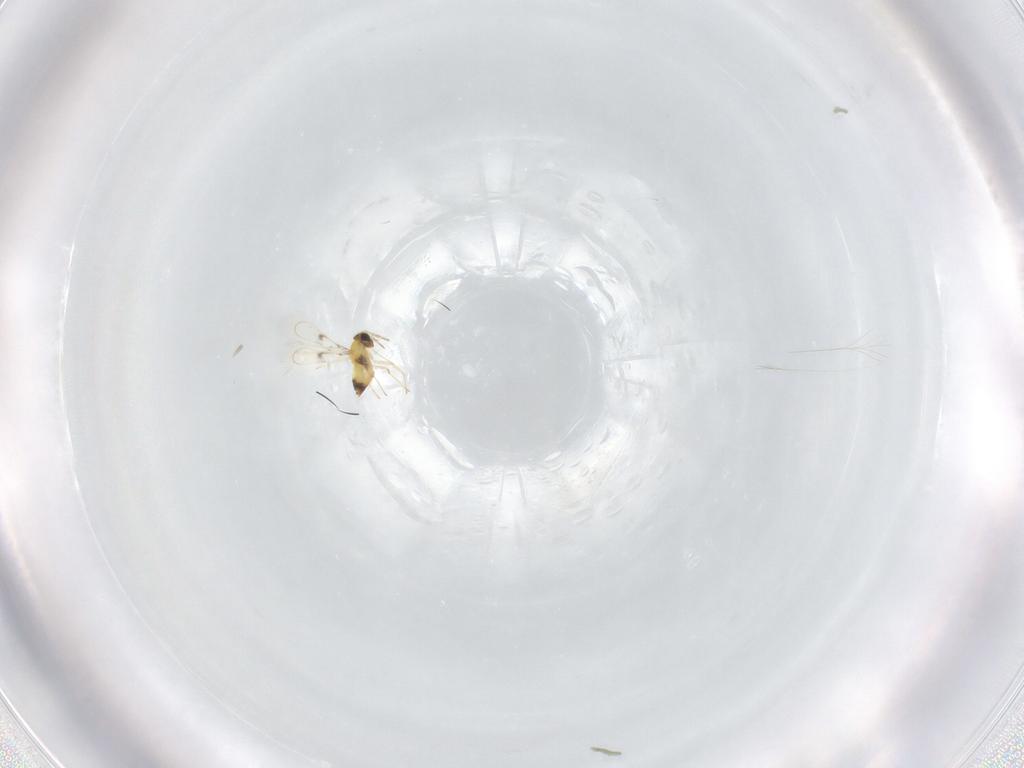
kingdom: Animalia
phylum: Arthropoda
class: Insecta
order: Hymenoptera
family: Trichogrammatidae
